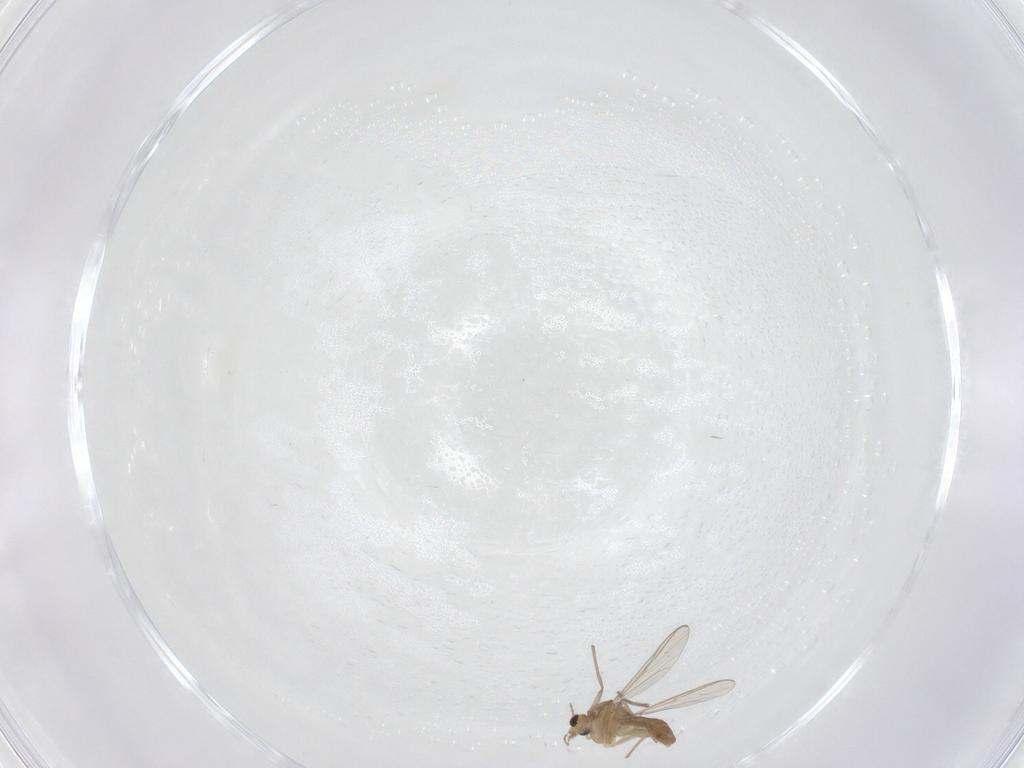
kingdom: Animalia
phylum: Arthropoda
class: Insecta
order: Diptera
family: Chironomidae
